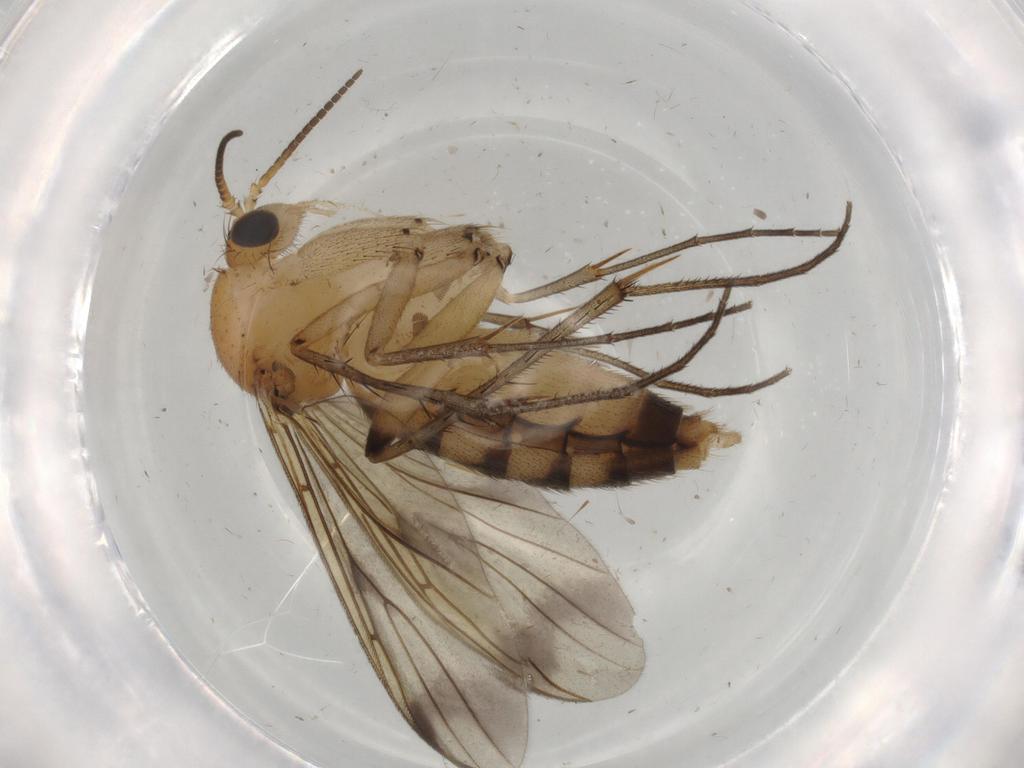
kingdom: Animalia
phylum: Arthropoda
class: Insecta
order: Diptera
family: Mycetophilidae
